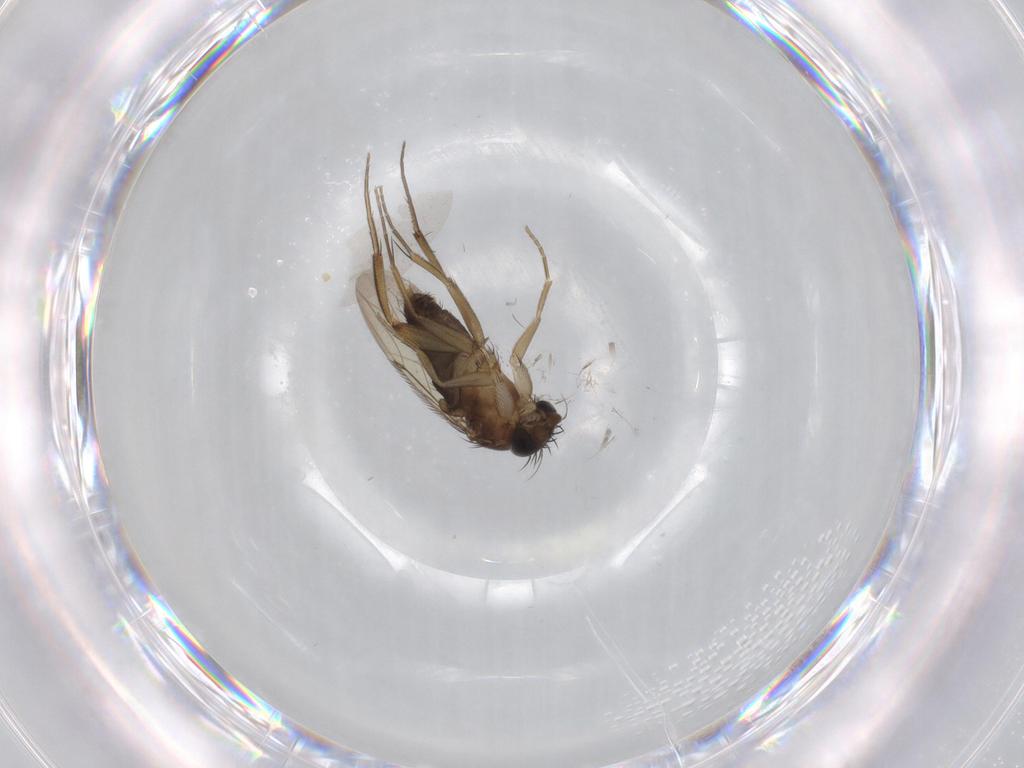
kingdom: Animalia
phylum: Arthropoda
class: Insecta
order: Diptera
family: Phoridae
